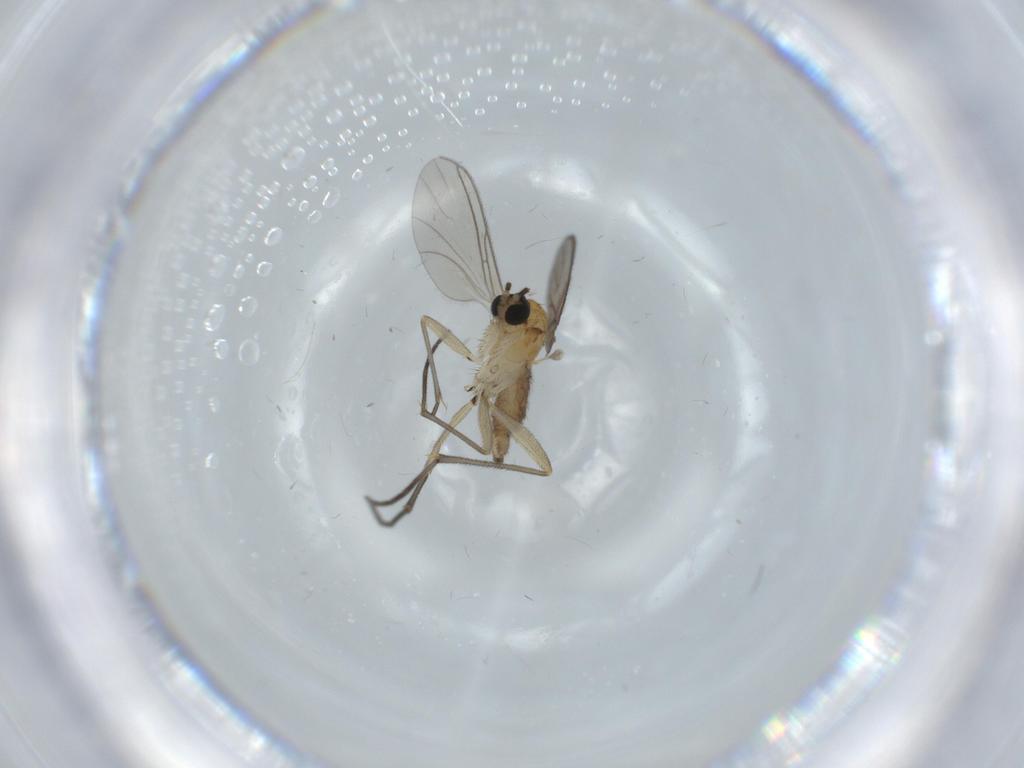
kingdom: Animalia
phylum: Arthropoda
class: Insecta
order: Diptera
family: Sciaridae
